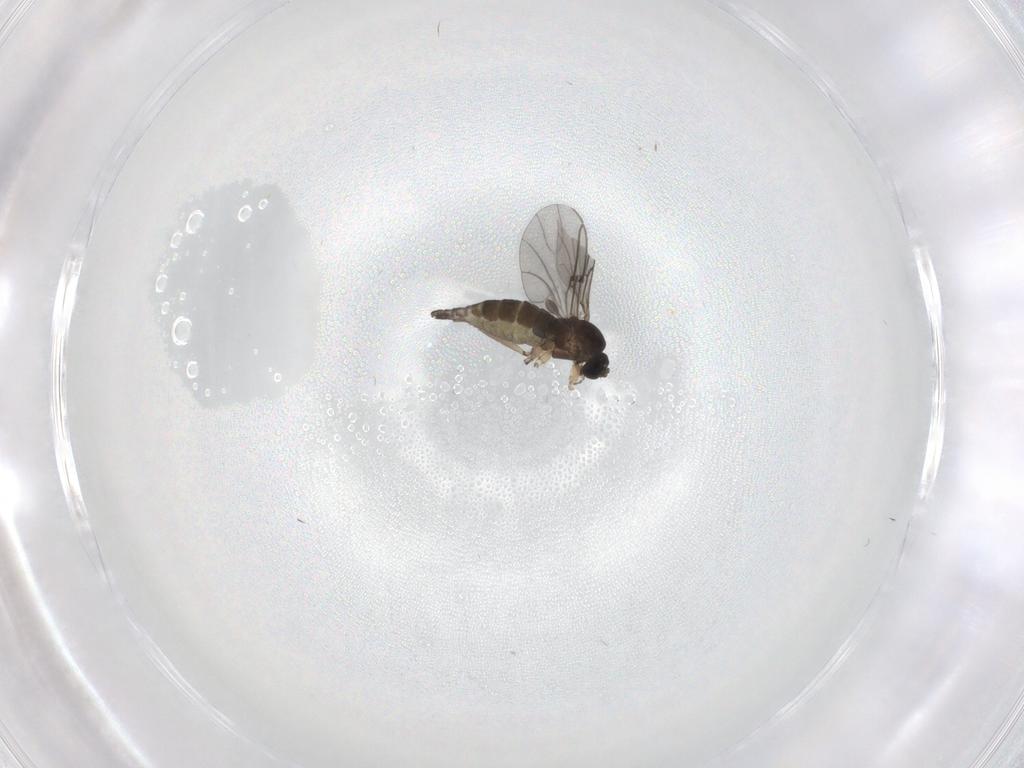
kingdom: Animalia
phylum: Arthropoda
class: Insecta
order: Diptera
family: Sciaridae
